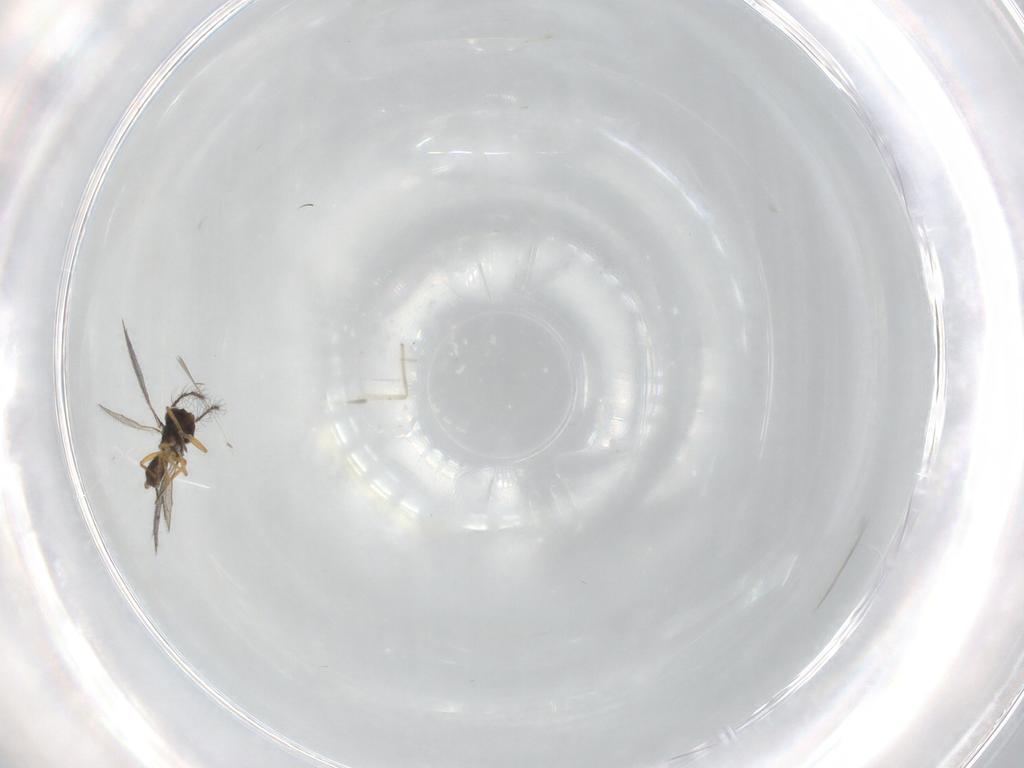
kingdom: Animalia
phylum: Arthropoda
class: Insecta
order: Hymenoptera
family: Eulophidae
